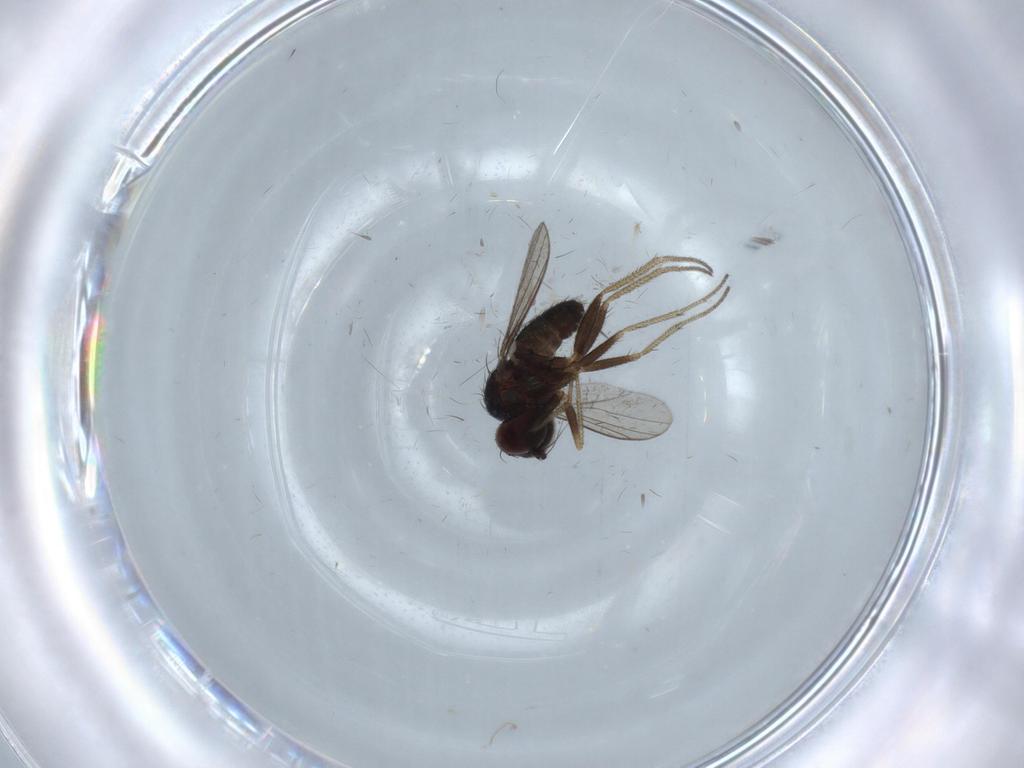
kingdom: Animalia
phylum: Arthropoda
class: Insecta
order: Diptera
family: Dolichopodidae
